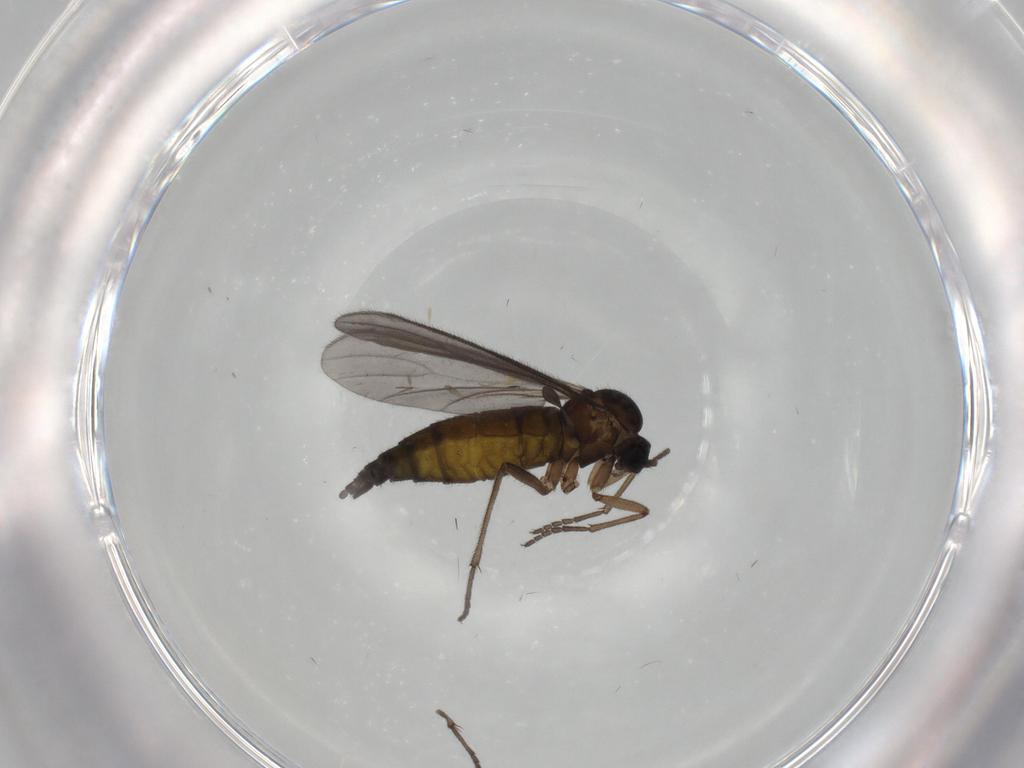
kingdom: Animalia
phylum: Arthropoda
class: Insecta
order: Diptera
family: Sciaridae
